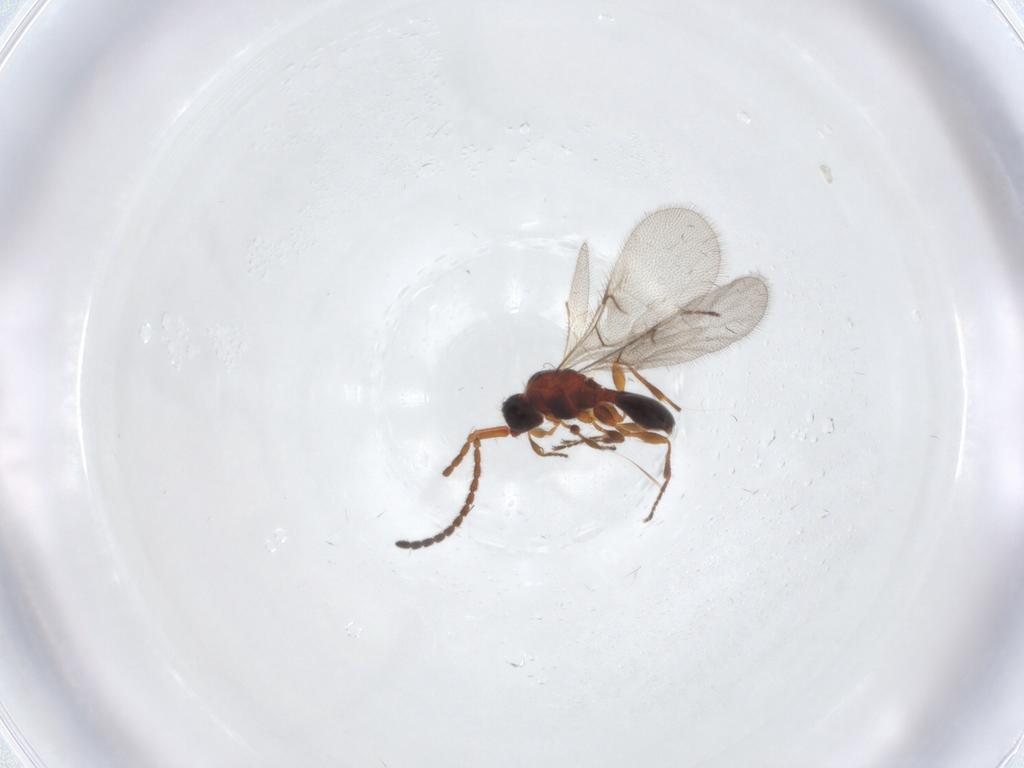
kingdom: Animalia
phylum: Arthropoda
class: Insecta
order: Hymenoptera
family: Diapriidae
